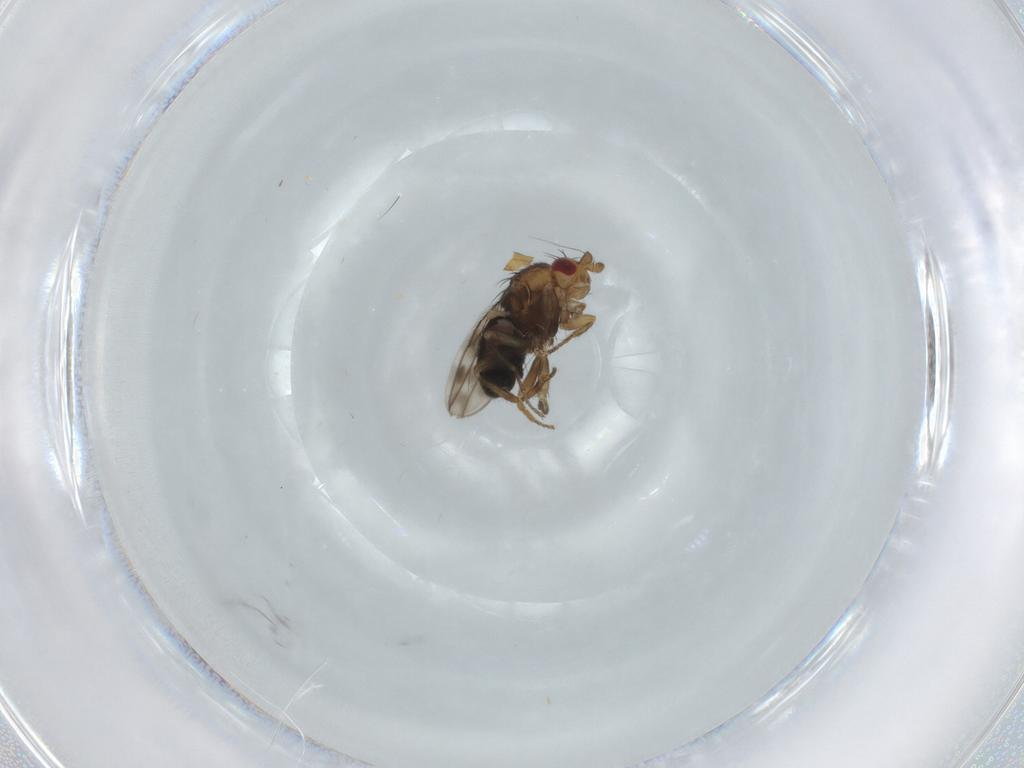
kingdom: Animalia
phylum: Arthropoda
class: Insecta
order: Diptera
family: Sphaeroceridae
